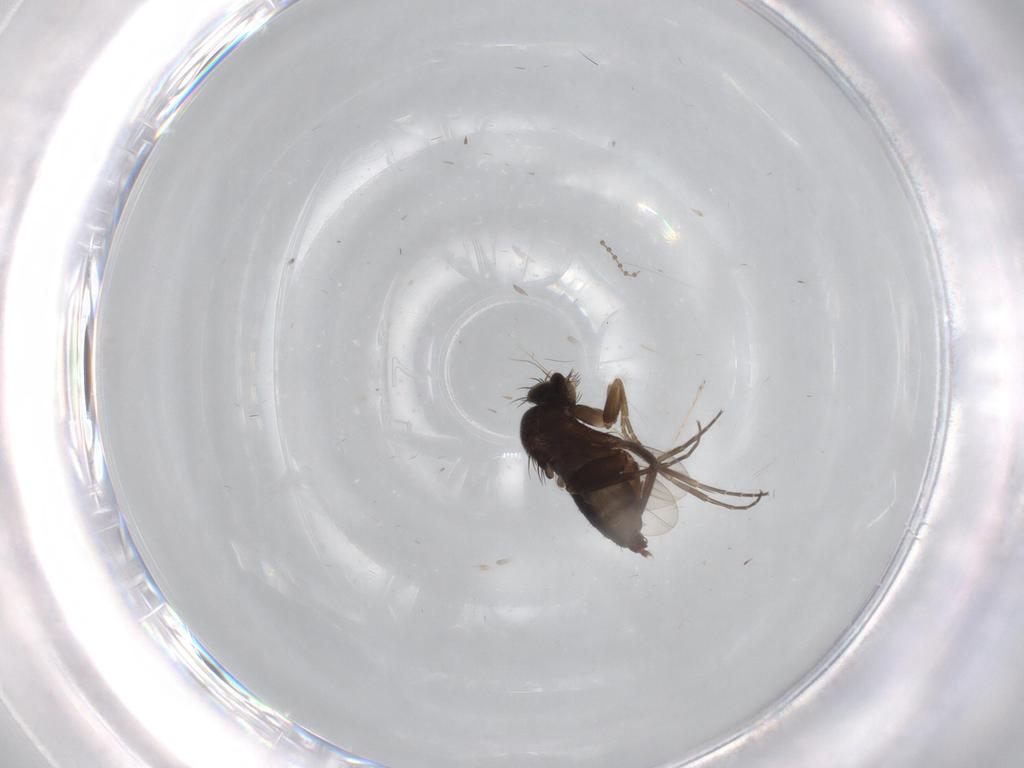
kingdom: Animalia
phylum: Arthropoda
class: Insecta
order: Diptera
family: Phoridae
